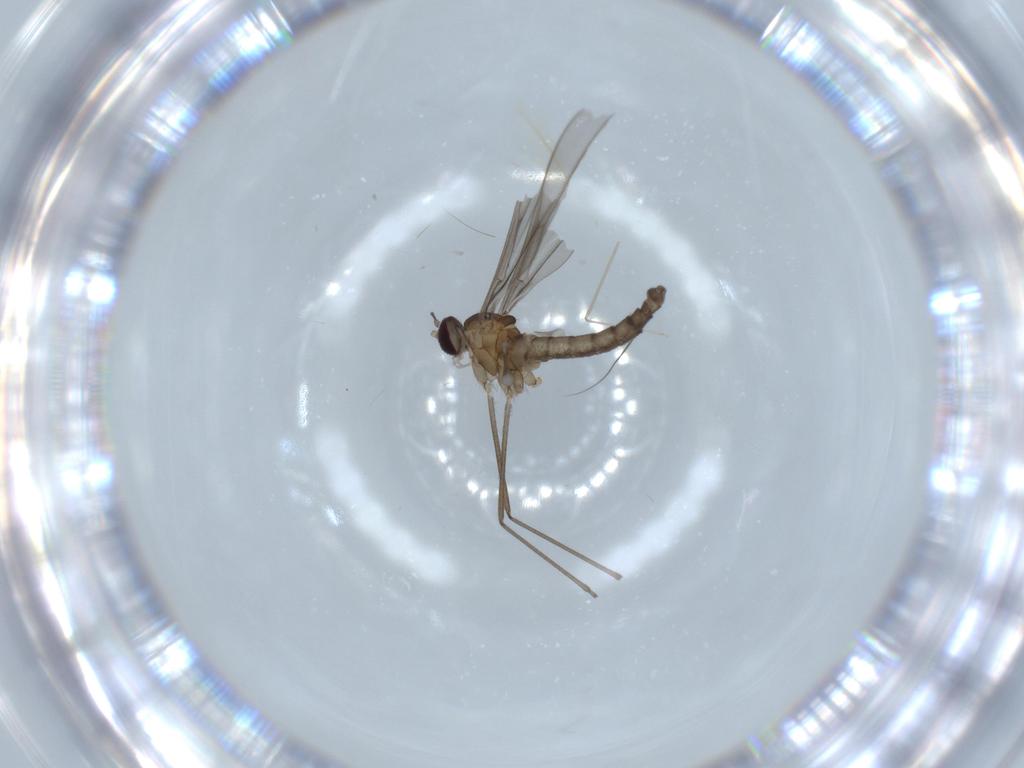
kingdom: Animalia
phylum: Arthropoda
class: Insecta
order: Diptera
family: Cecidomyiidae
